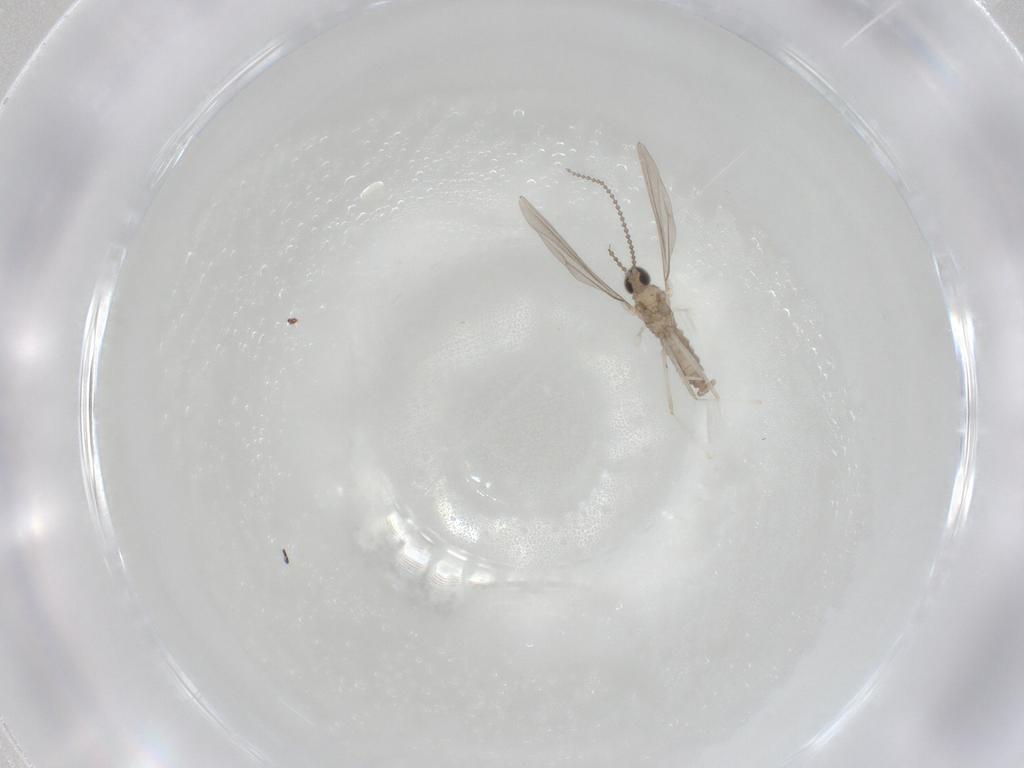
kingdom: Animalia
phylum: Arthropoda
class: Insecta
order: Diptera
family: Cecidomyiidae
